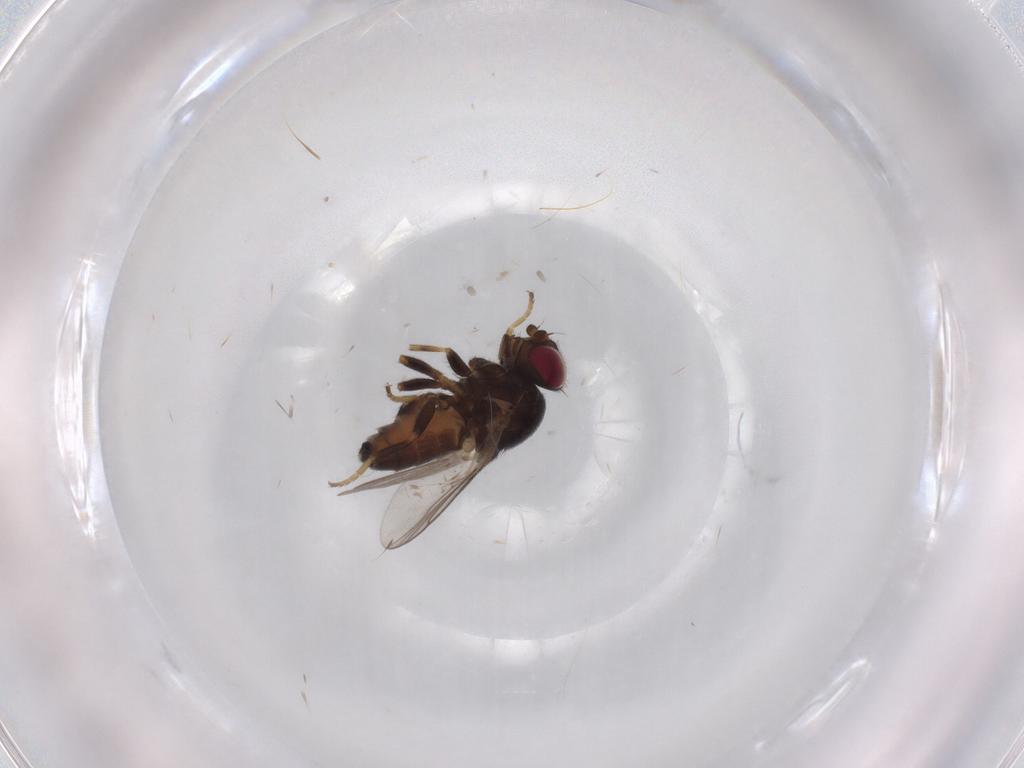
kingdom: Animalia
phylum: Arthropoda
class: Insecta
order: Diptera
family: Chloropidae
